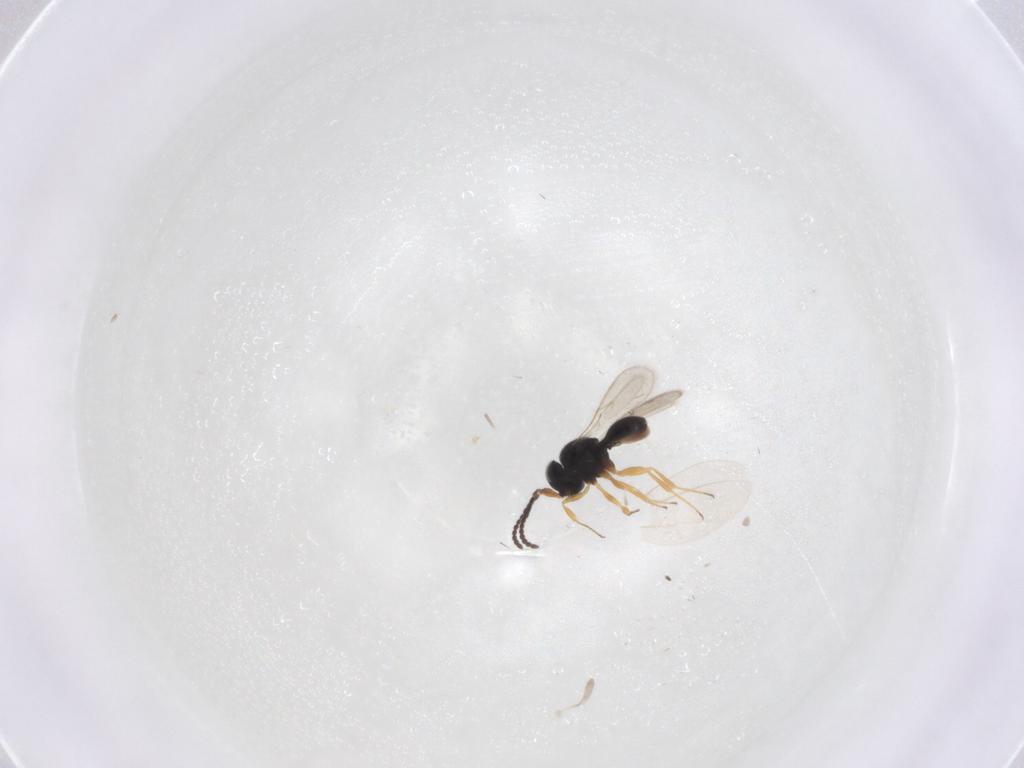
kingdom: Animalia
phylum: Arthropoda
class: Insecta
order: Hymenoptera
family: Scelionidae
